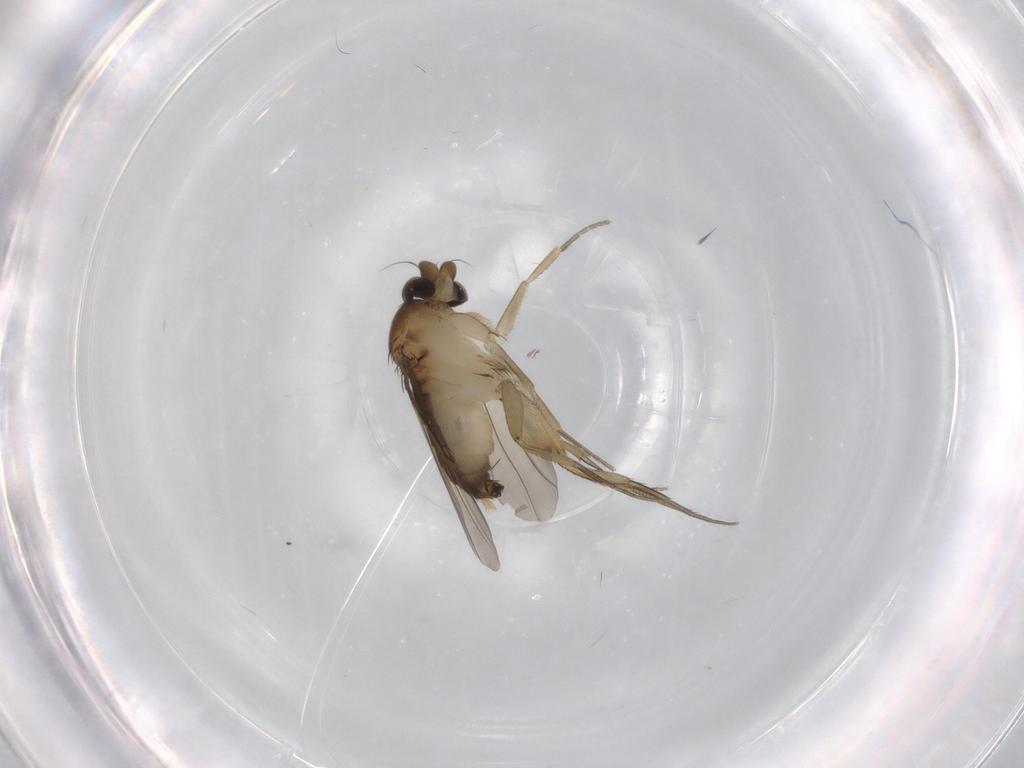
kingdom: Animalia
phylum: Arthropoda
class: Insecta
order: Diptera
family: Phoridae
